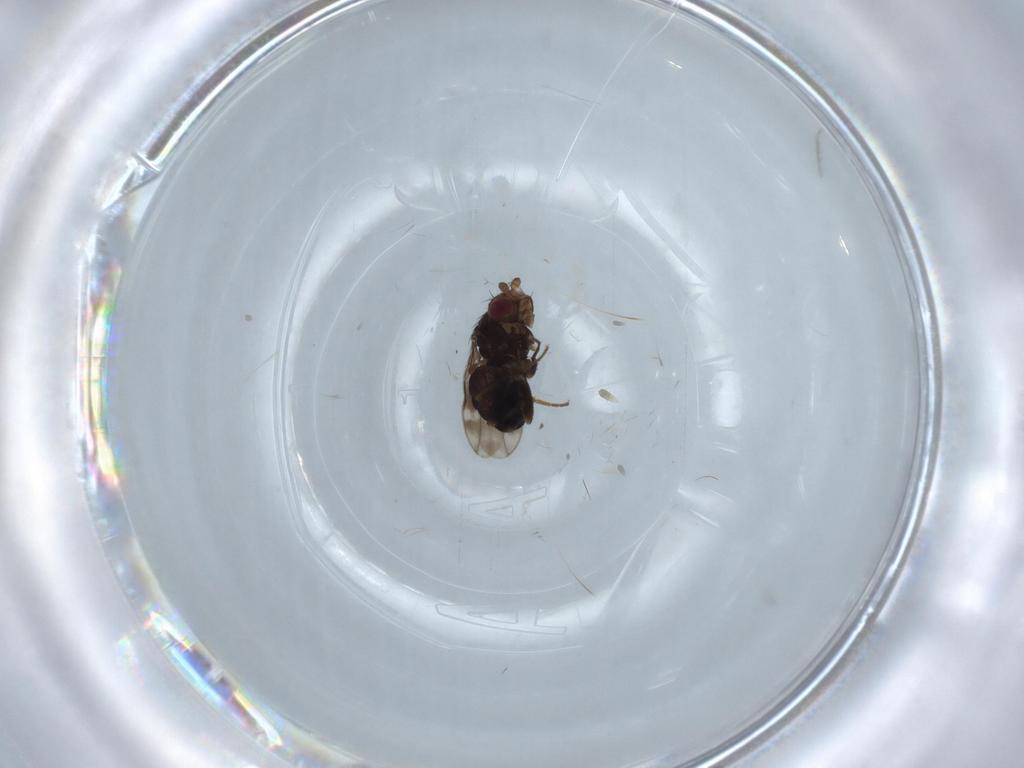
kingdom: Animalia
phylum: Arthropoda
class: Insecta
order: Diptera
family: Sphaeroceridae
